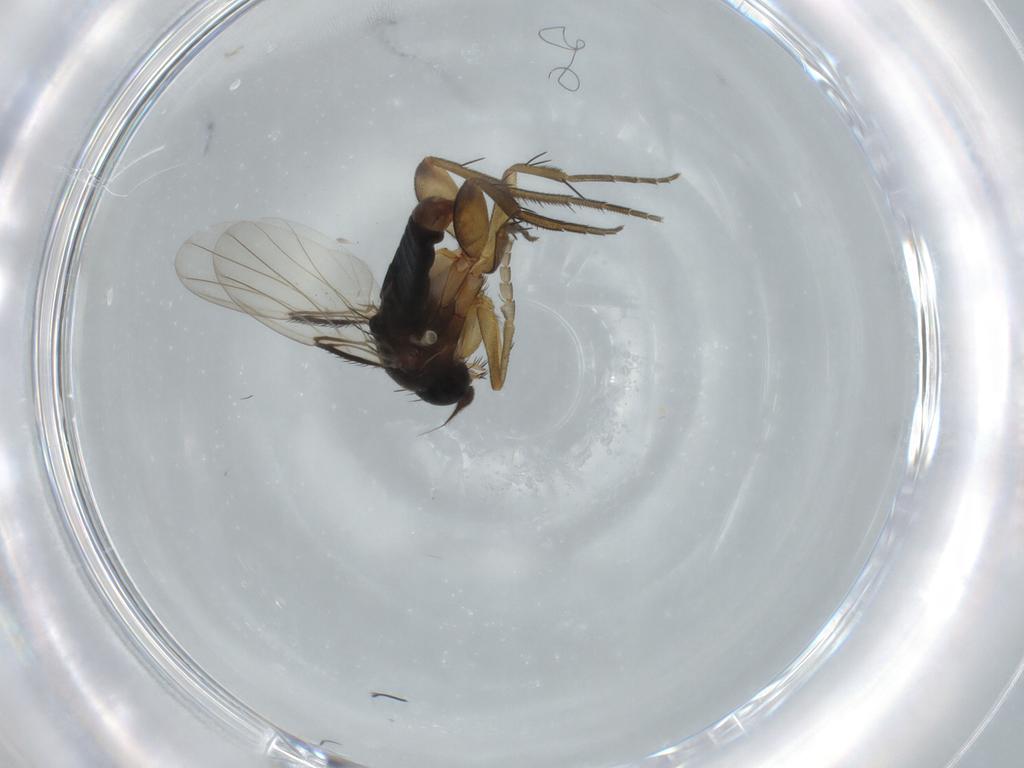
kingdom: Animalia
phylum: Arthropoda
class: Insecta
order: Diptera
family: Phoridae
